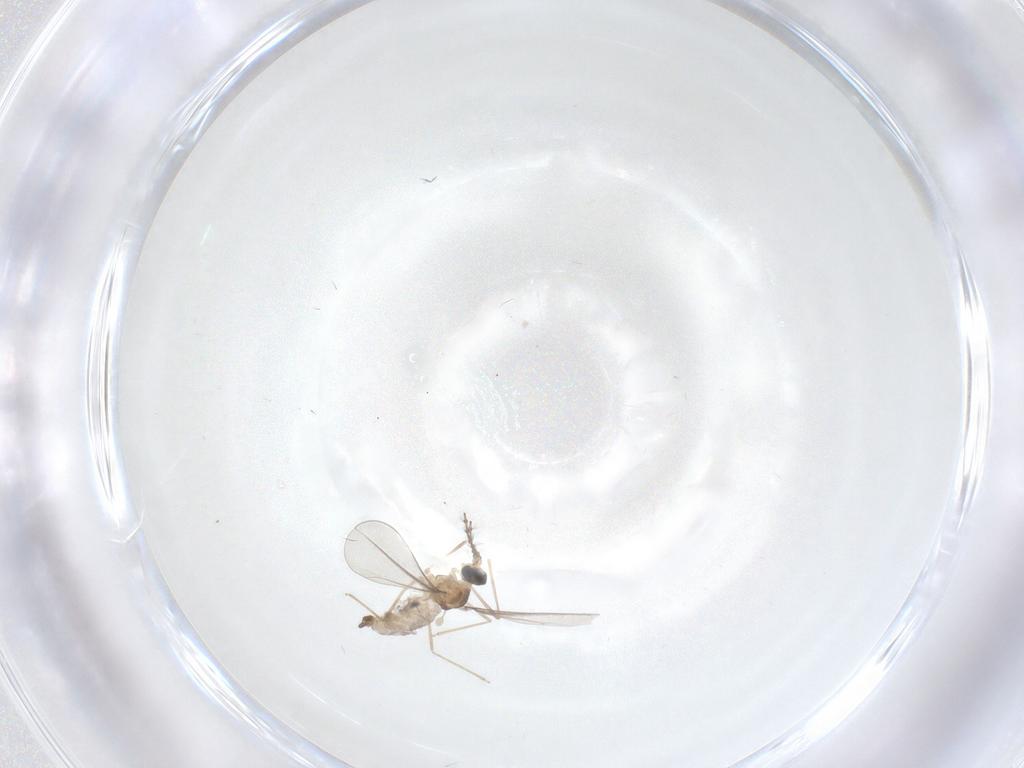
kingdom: Animalia
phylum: Arthropoda
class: Insecta
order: Diptera
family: Cecidomyiidae
